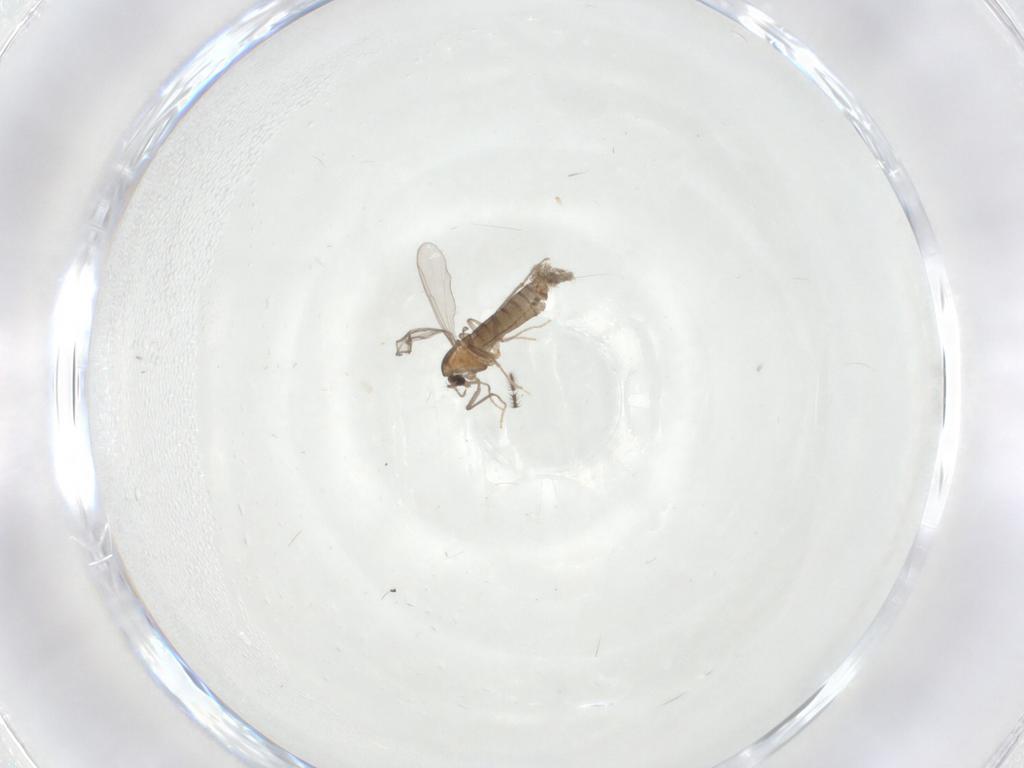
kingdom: Animalia
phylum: Arthropoda
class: Insecta
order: Diptera
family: Chironomidae
